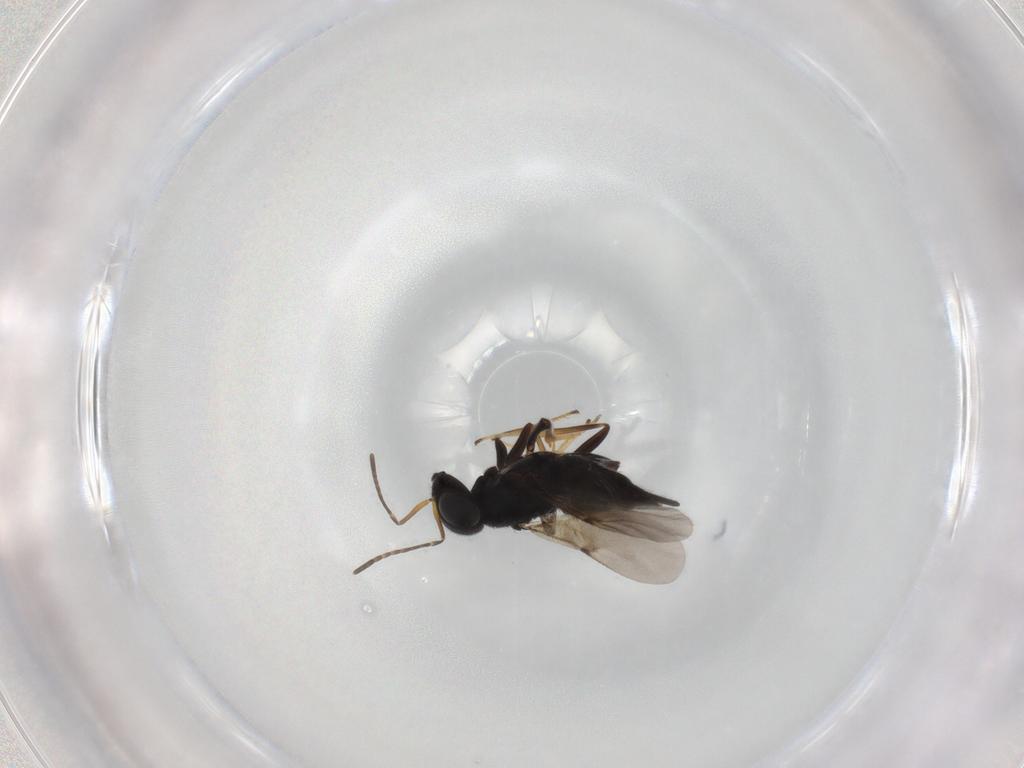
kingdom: Animalia
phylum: Arthropoda
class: Insecta
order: Hymenoptera
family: Encyrtidae
